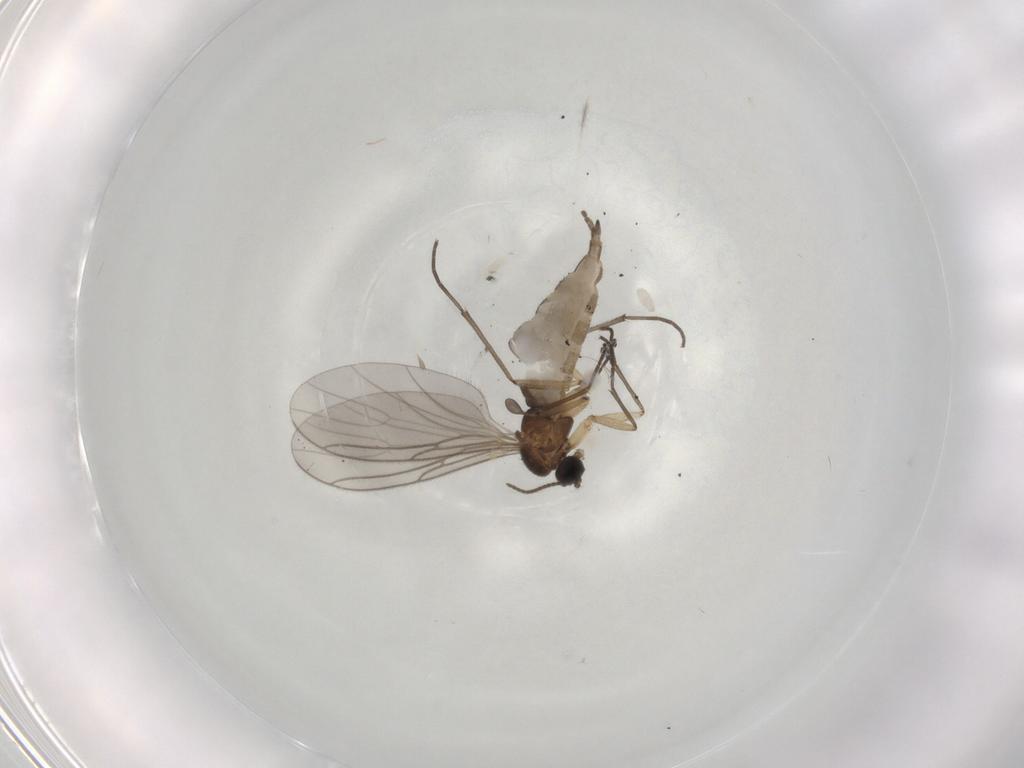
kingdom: Animalia
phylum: Arthropoda
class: Insecta
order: Diptera
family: Sciaridae
